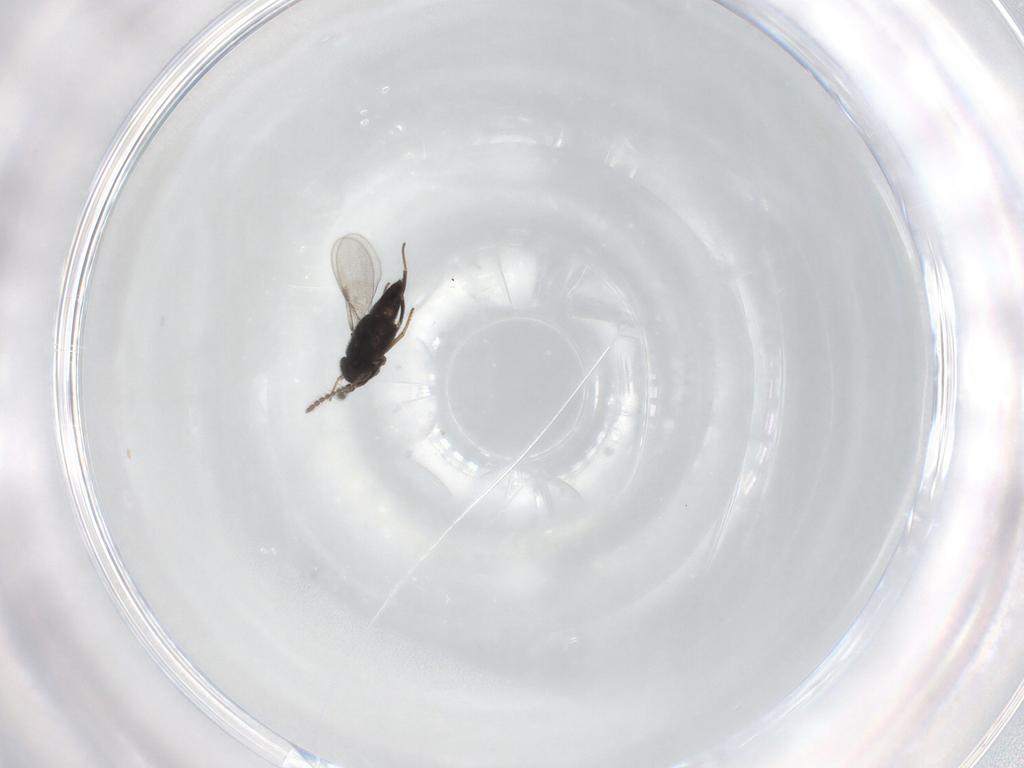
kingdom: Animalia
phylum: Arthropoda
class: Insecta
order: Hymenoptera
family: Encyrtidae
